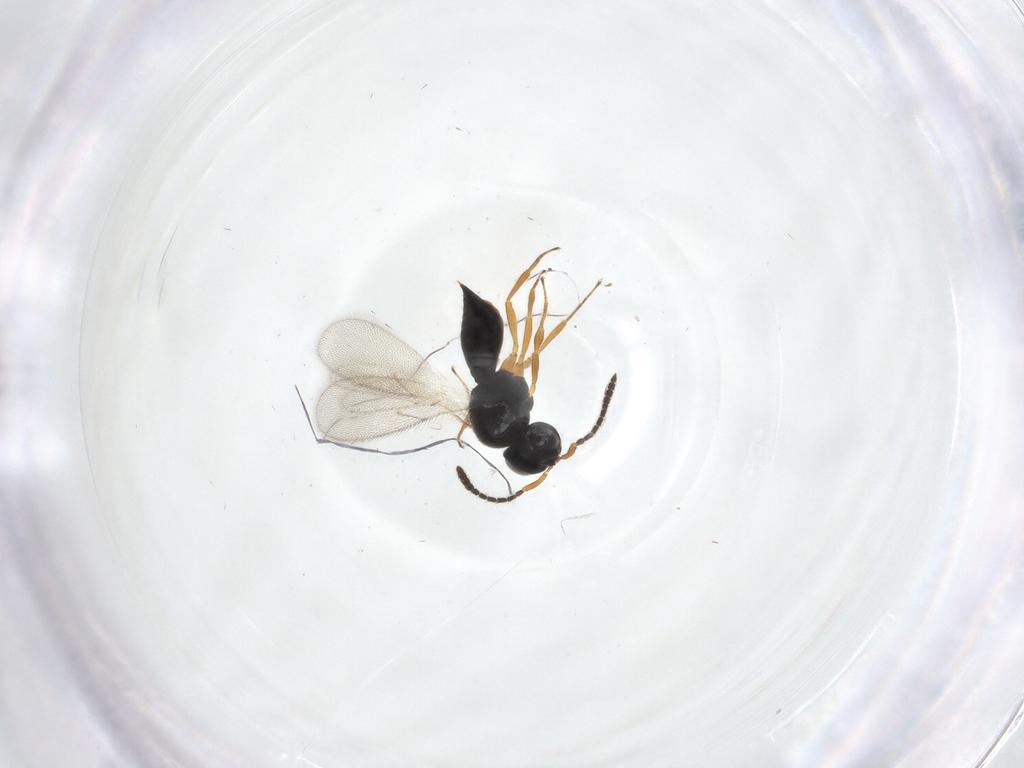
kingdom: Animalia
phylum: Arthropoda
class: Insecta
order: Hymenoptera
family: Scelionidae
